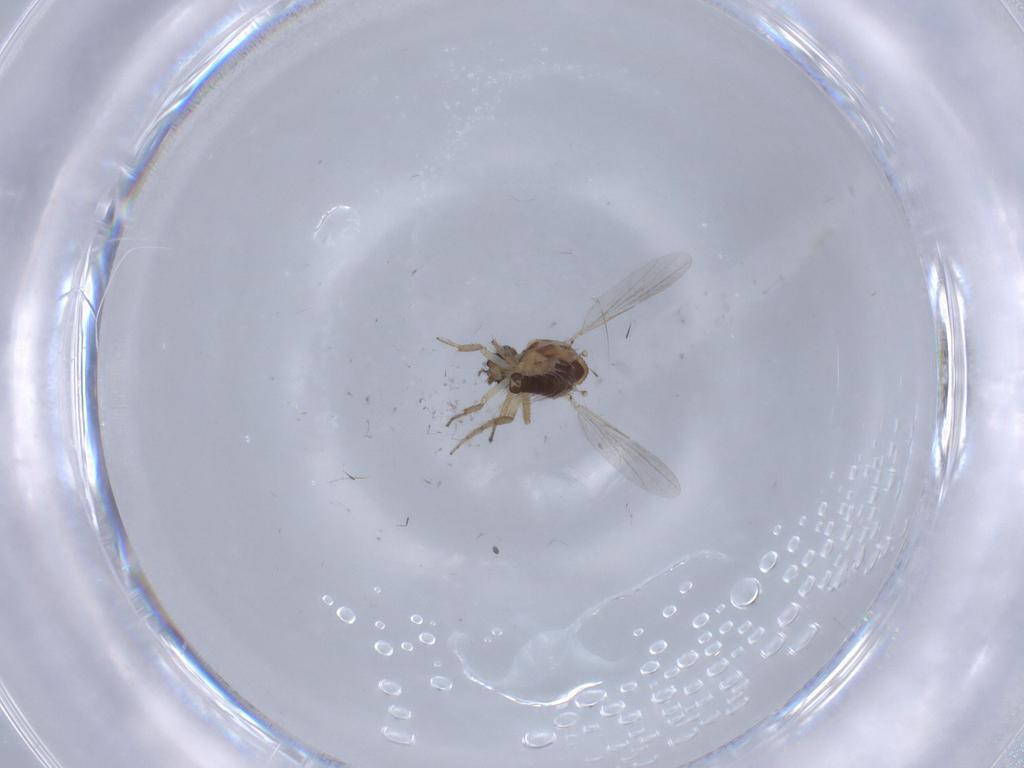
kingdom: Animalia
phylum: Arthropoda
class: Insecta
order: Diptera
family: Ceratopogonidae
